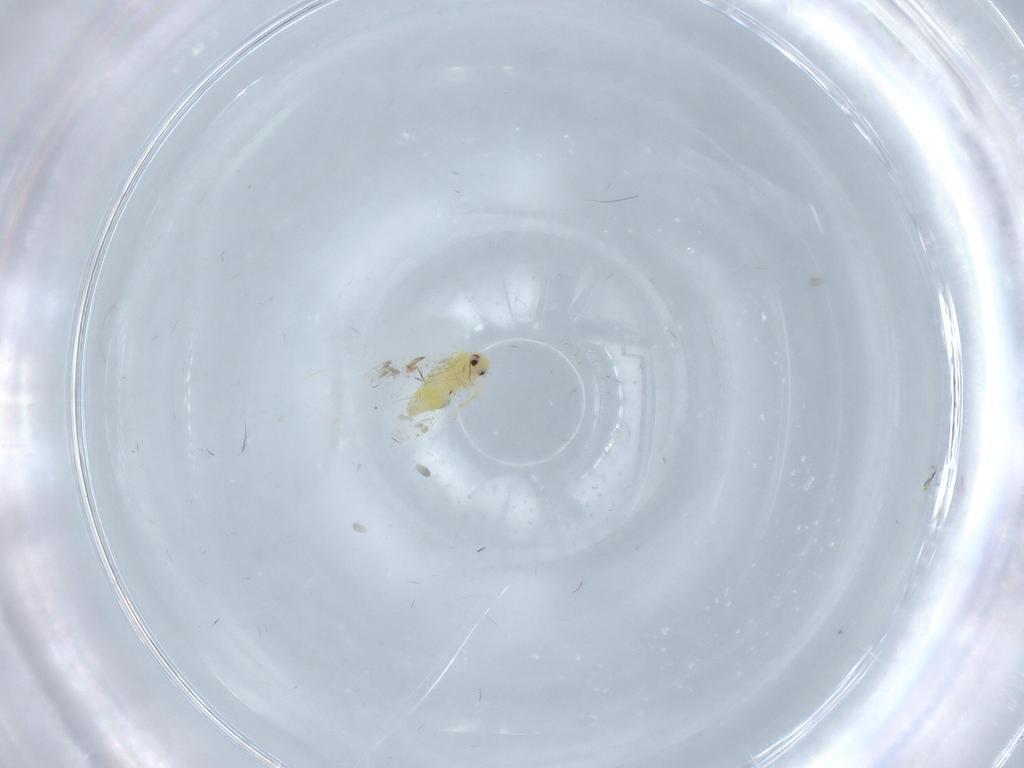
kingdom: Animalia
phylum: Arthropoda
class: Insecta
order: Hemiptera
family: Aleyrodidae
